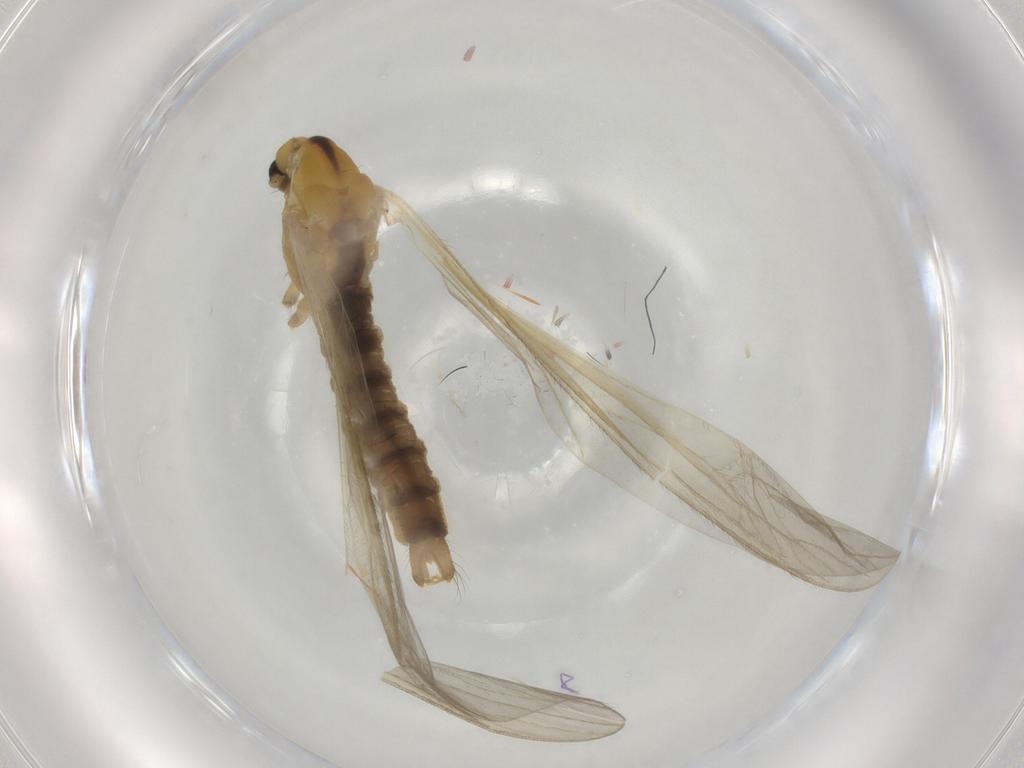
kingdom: Animalia
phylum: Arthropoda
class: Insecta
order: Diptera
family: Limoniidae
